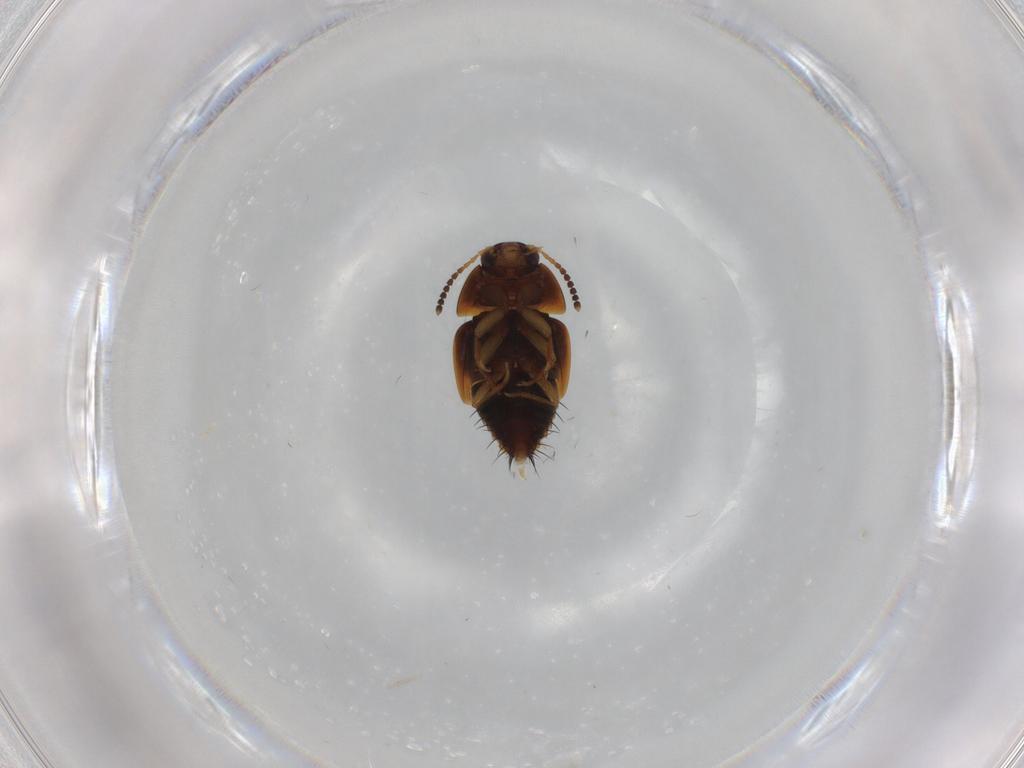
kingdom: Animalia
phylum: Arthropoda
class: Insecta
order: Coleoptera
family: Staphylinidae
